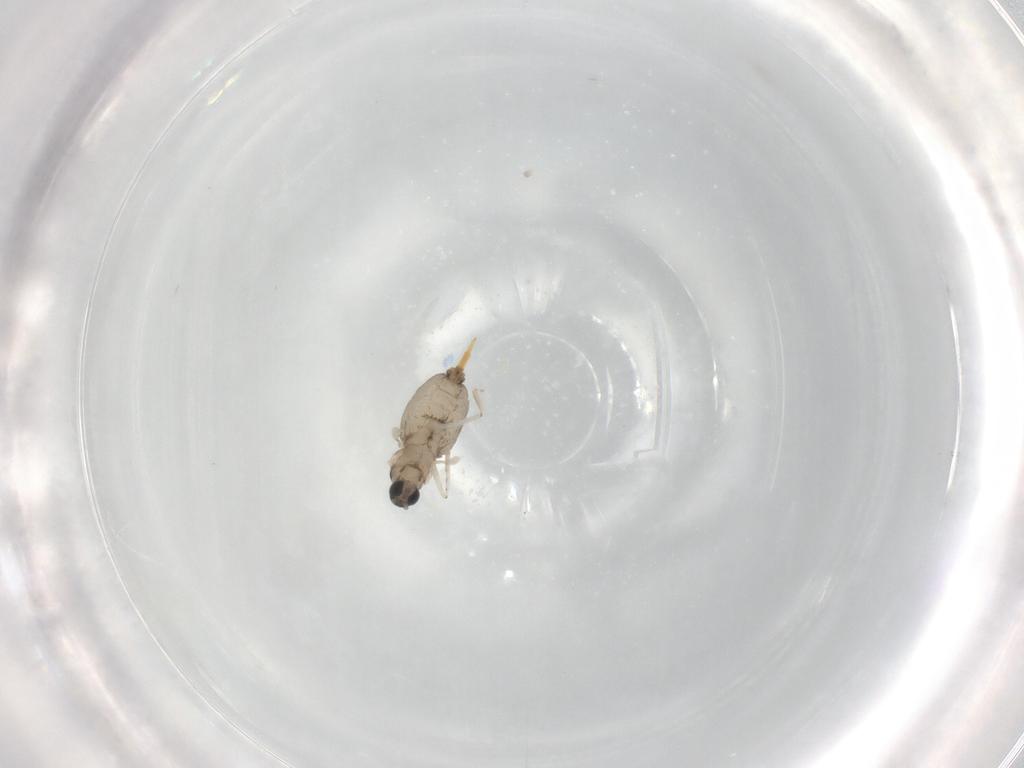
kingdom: Animalia
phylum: Arthropoda
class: Insecta
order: Diptera
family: Cecidomyiidae
